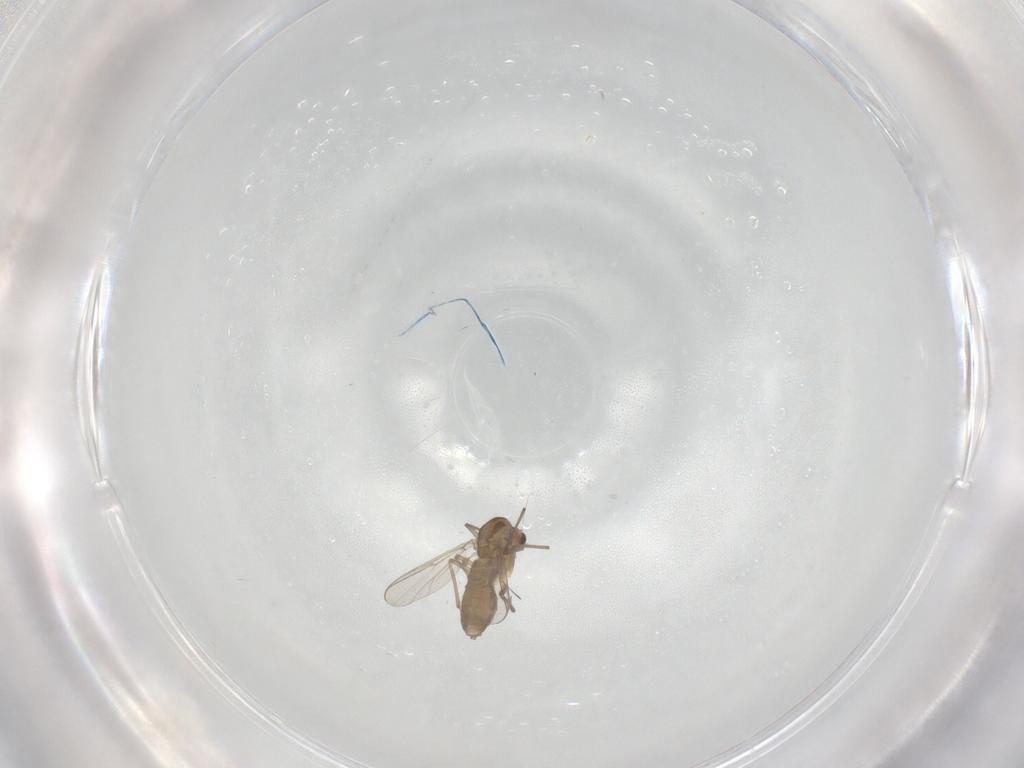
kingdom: Animalia
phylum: Arthropoda
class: Insecta
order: Diptera
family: Chironomidae
